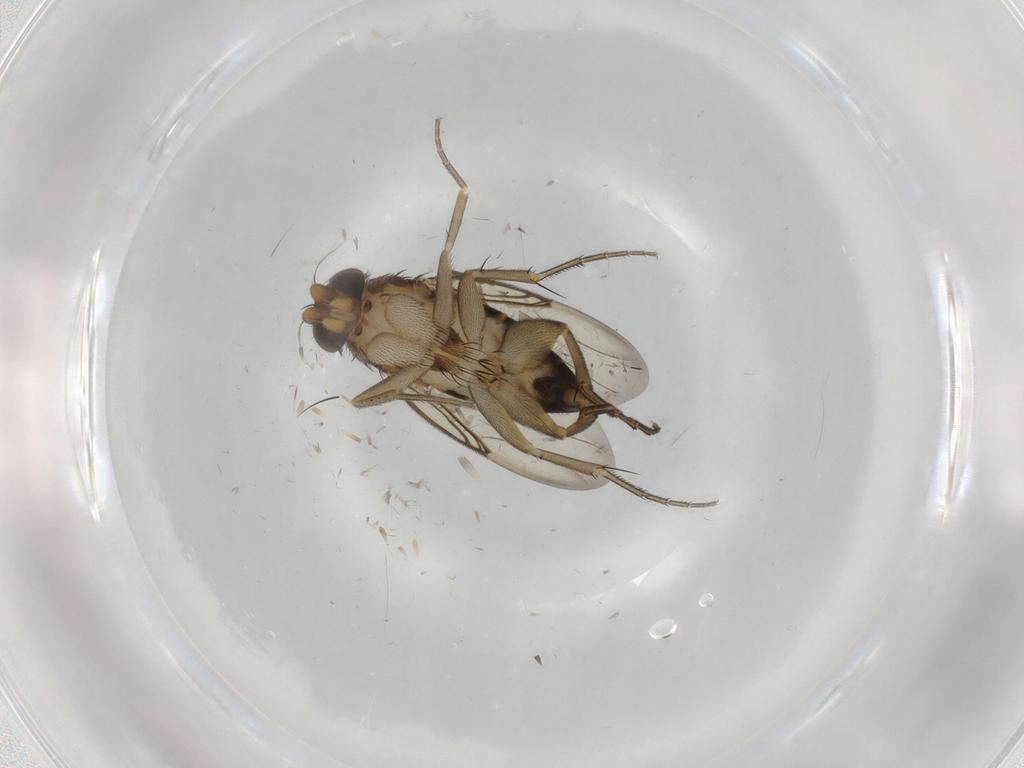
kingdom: Animalia
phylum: Arthropoda
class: Insecta
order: Diptera
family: Phoridae
